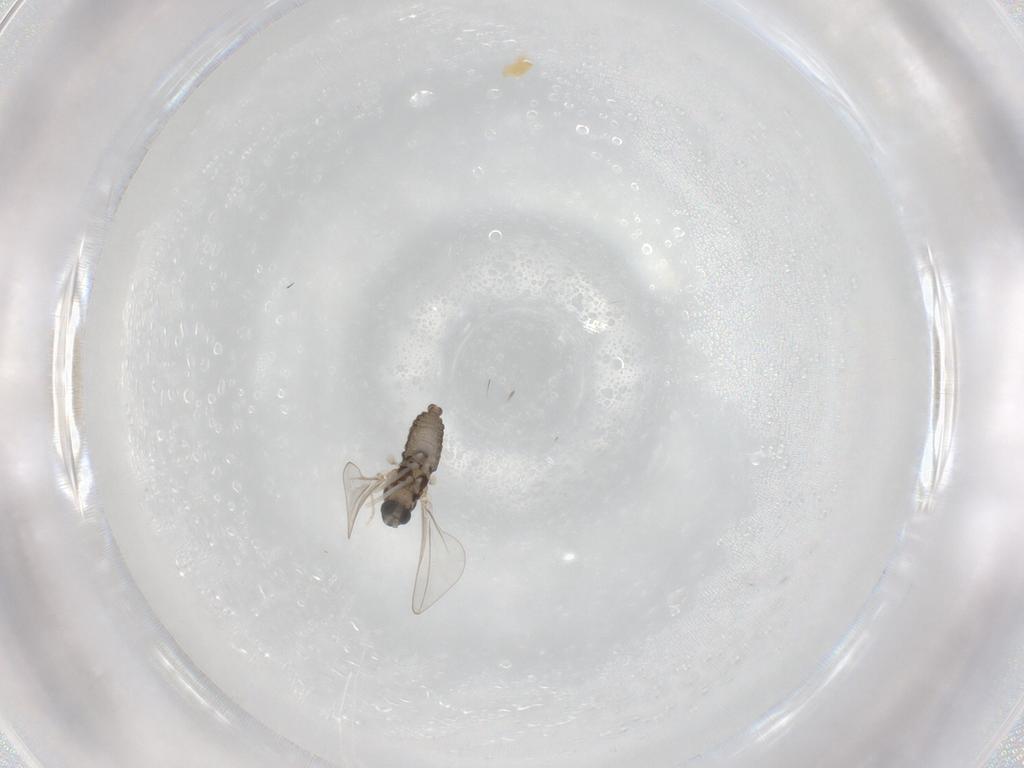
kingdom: Animalia
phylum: Arthropoda
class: Insecta
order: Diptera
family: Cecidomyiidae
